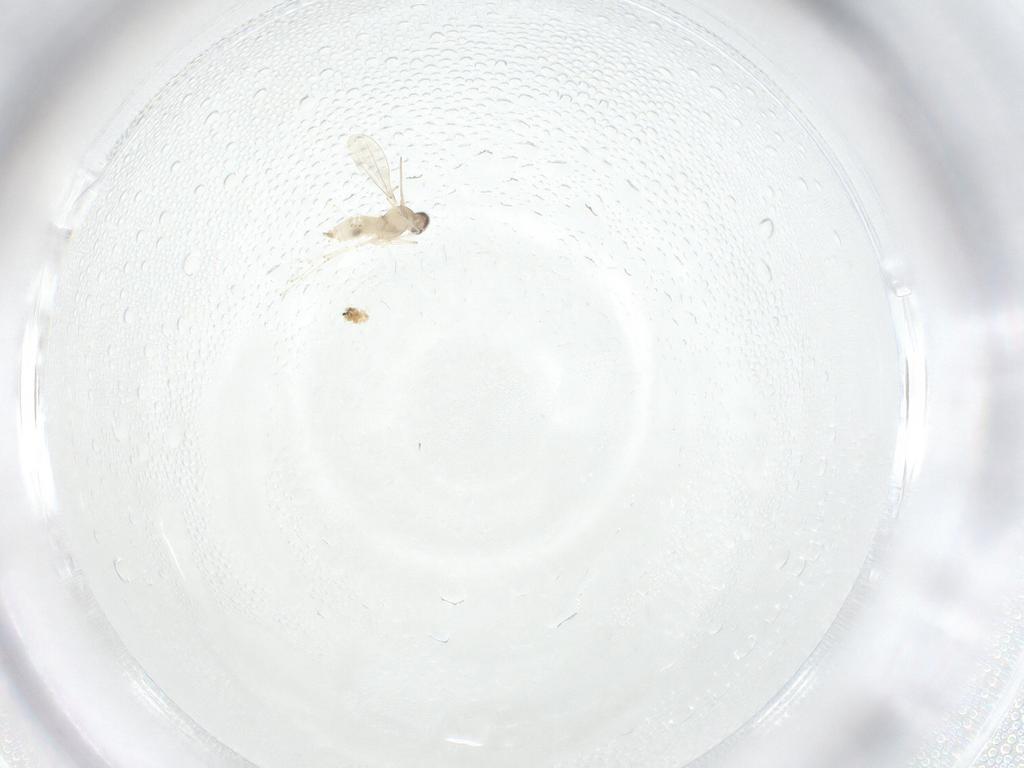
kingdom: Animalia
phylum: Arthropoda
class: Insecta
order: Diptera
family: Cecidomyiidae
